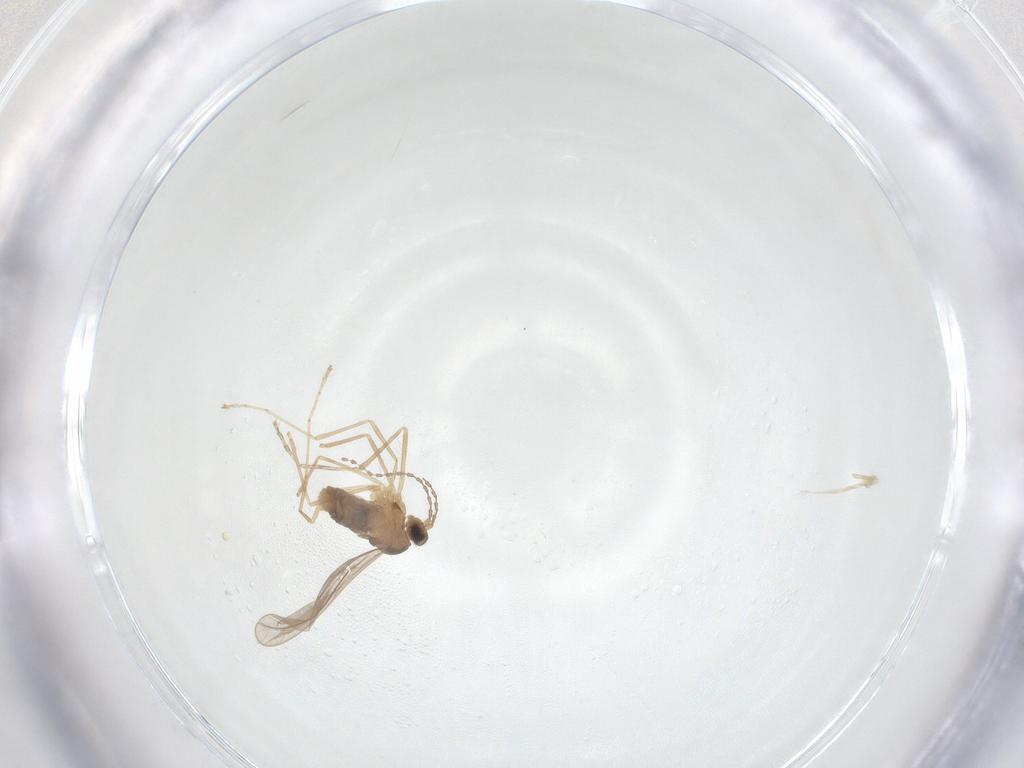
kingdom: Animalia
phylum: Arthropoda
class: Insecta
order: Diptera
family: Cecidomyiidae
